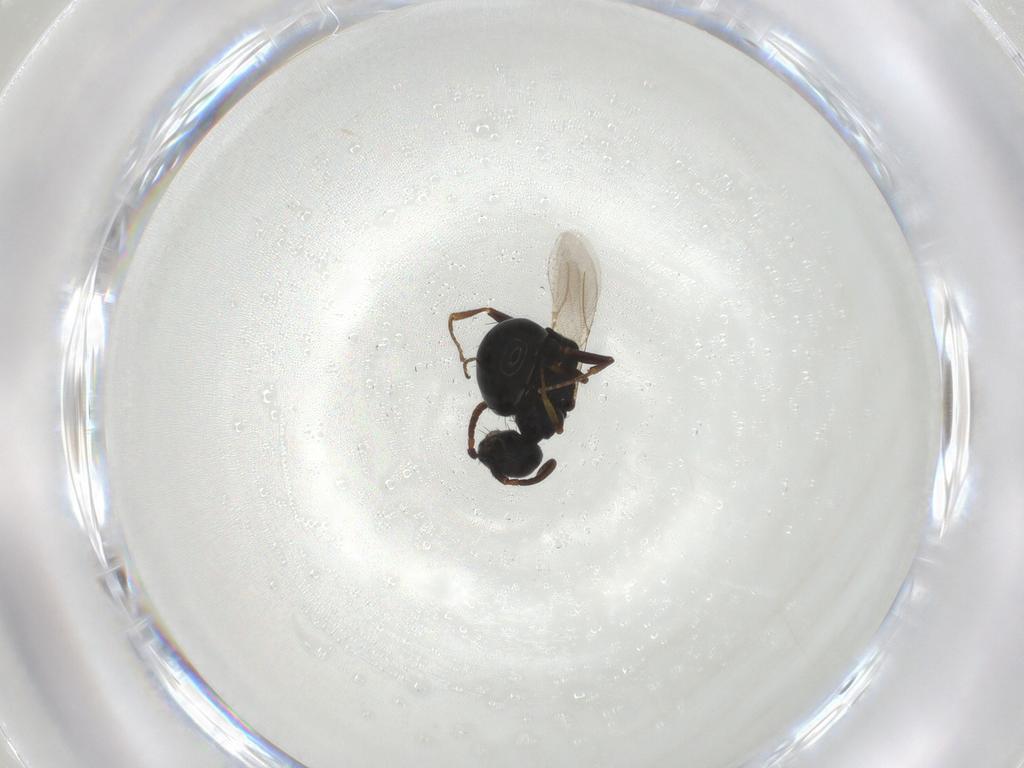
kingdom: Animalia
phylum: Arthropoda
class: Insecta
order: Hymenoptera
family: Bethylidae
